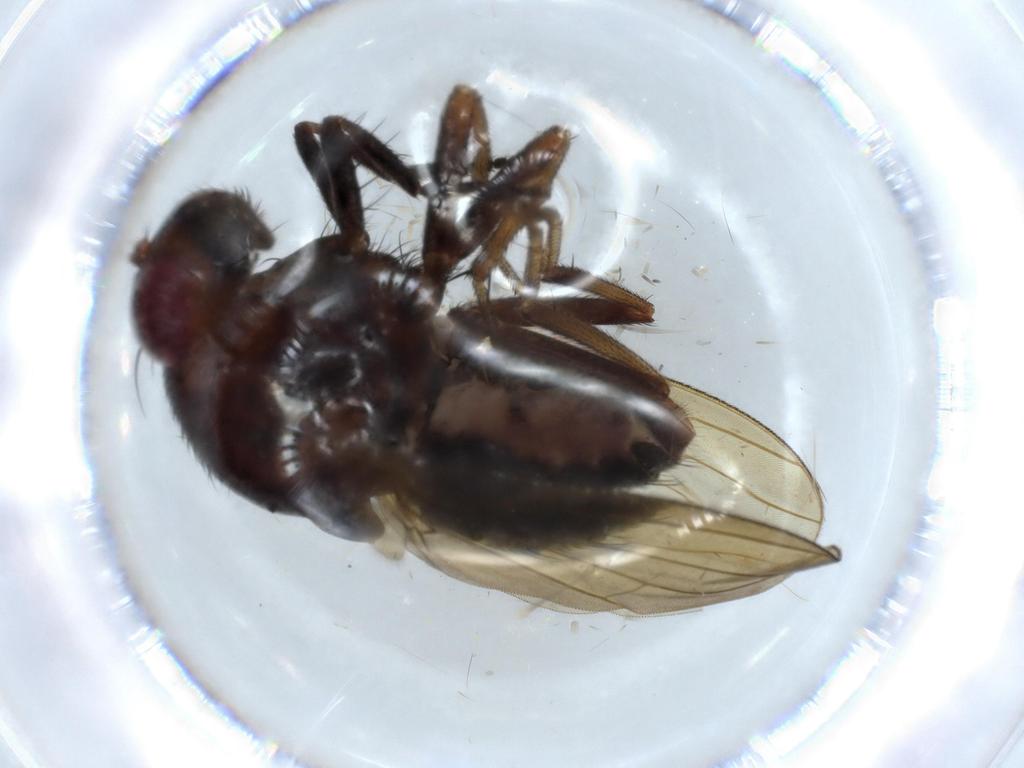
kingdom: Animalia
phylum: Arthropoda
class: Insecta
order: Diptera
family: Lauxaniidae
